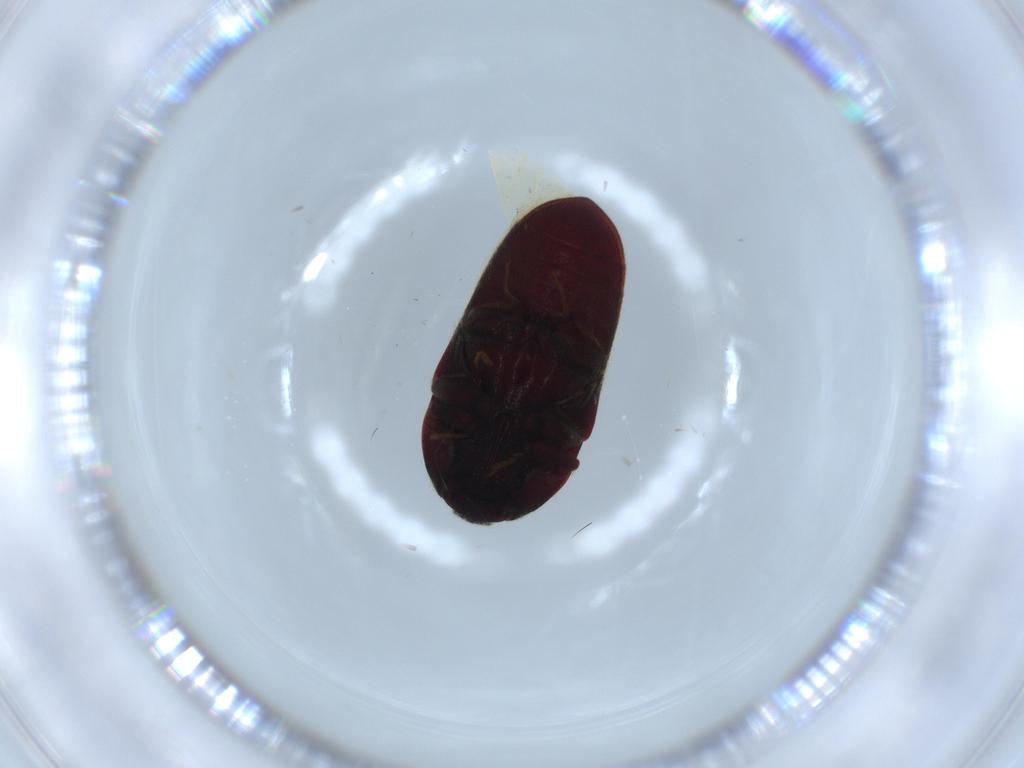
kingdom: Animalia
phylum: Arthropoda
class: Insecta
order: Coleoptera
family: Throscidae
